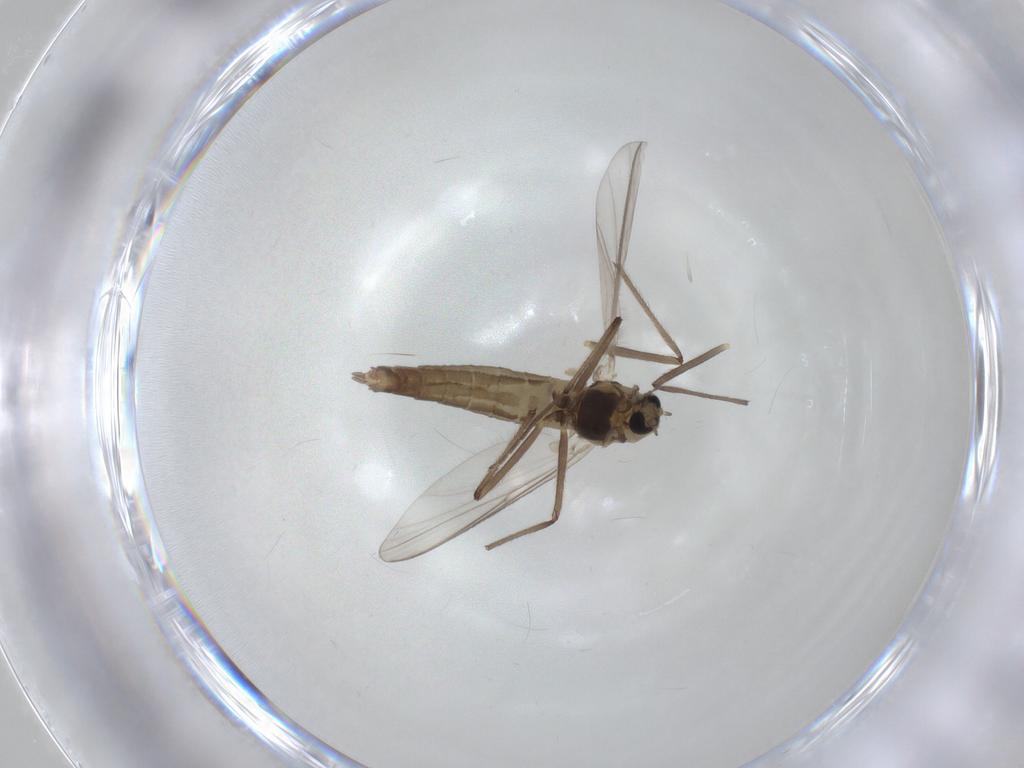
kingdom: Animalia
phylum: Arthropoda
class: Insecta
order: Diptera
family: Chironomidae
